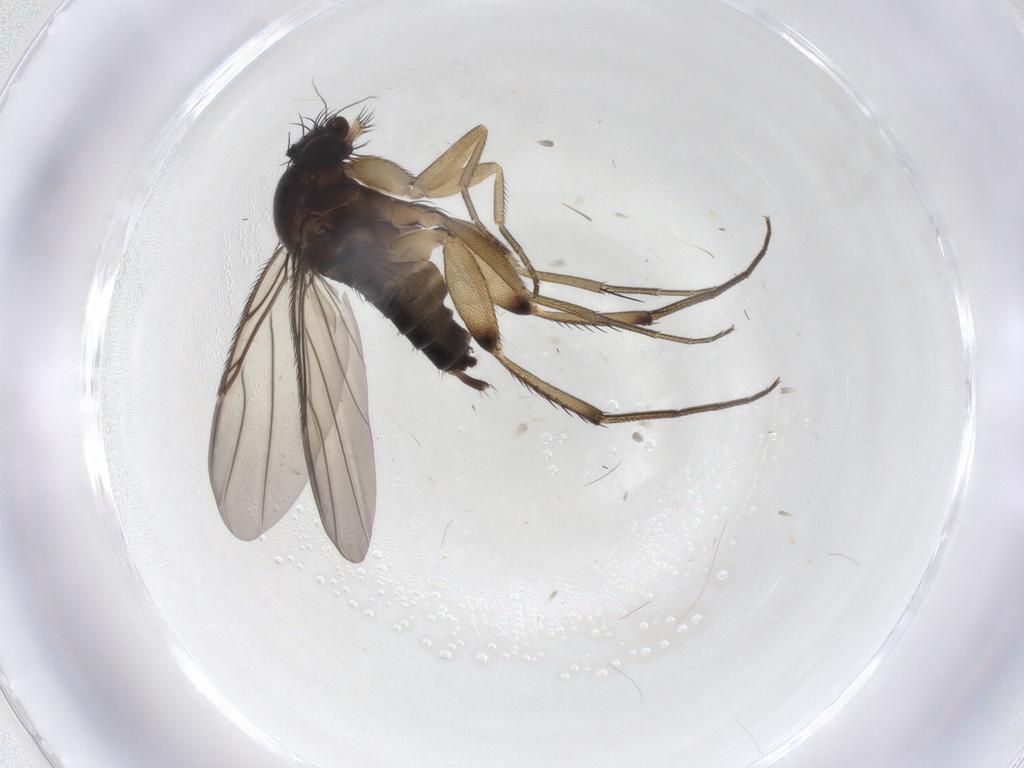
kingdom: Animalia
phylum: Arthropoda
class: Insecta
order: Diptera
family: Phoridae
